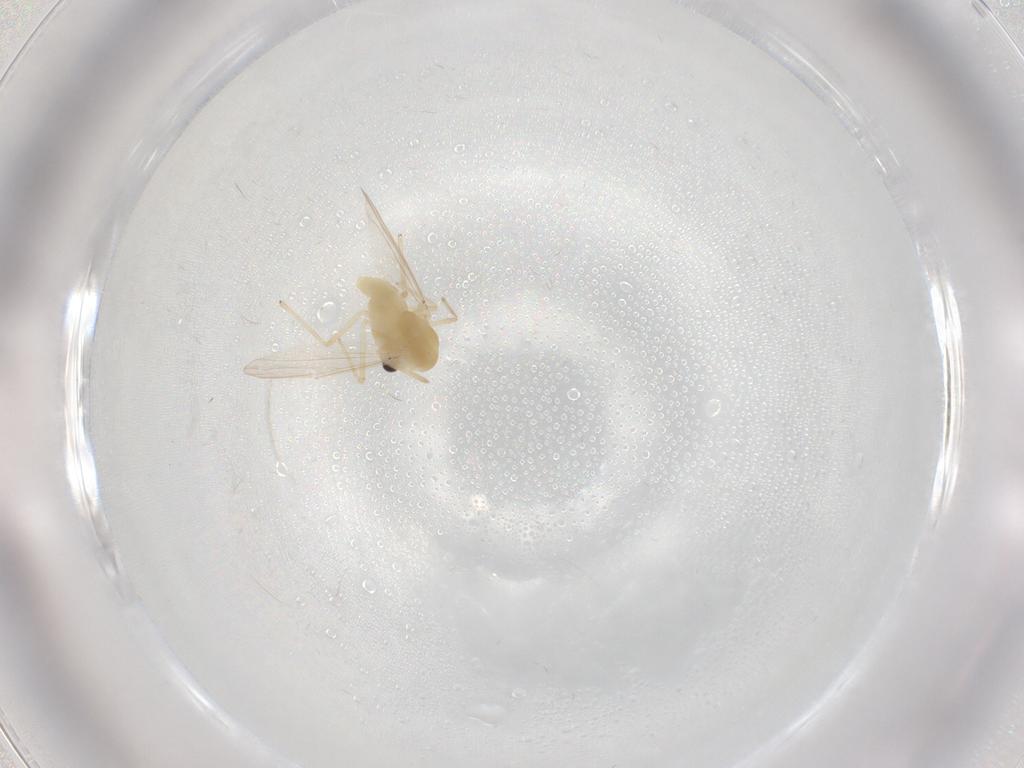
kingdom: Animalia
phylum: Arthropoda
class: Insecta
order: Diptera
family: Chironomidae
